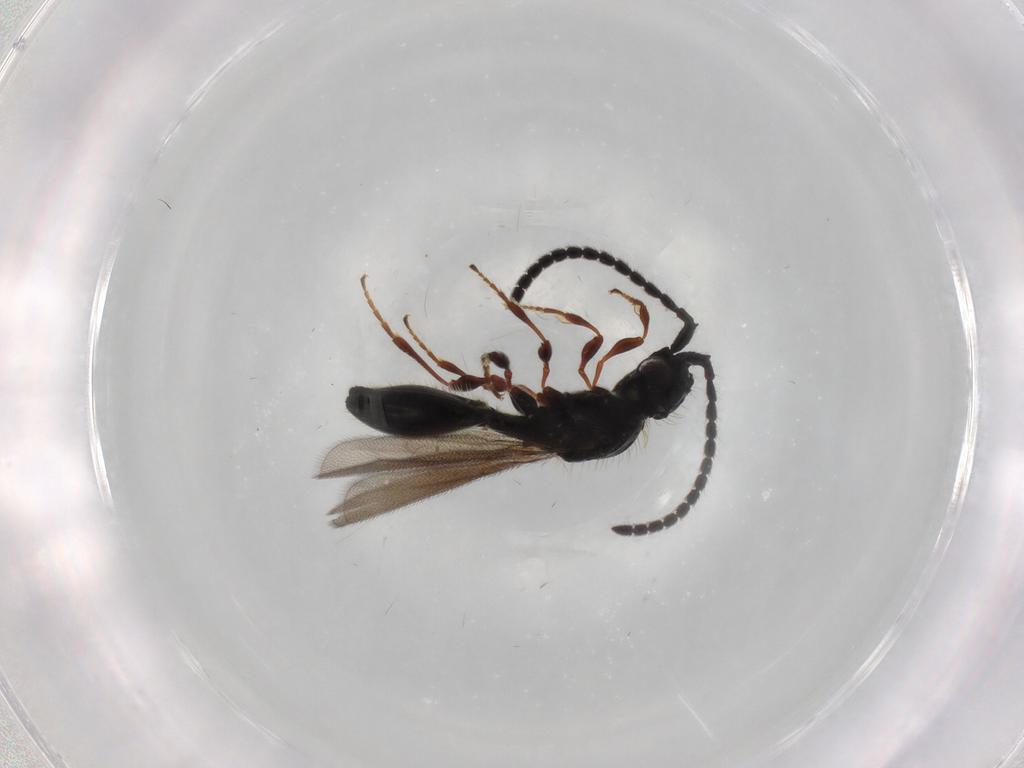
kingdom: Animalia
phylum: Arthropoda
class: Insecta
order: Hymenoptera
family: Diapriidae
